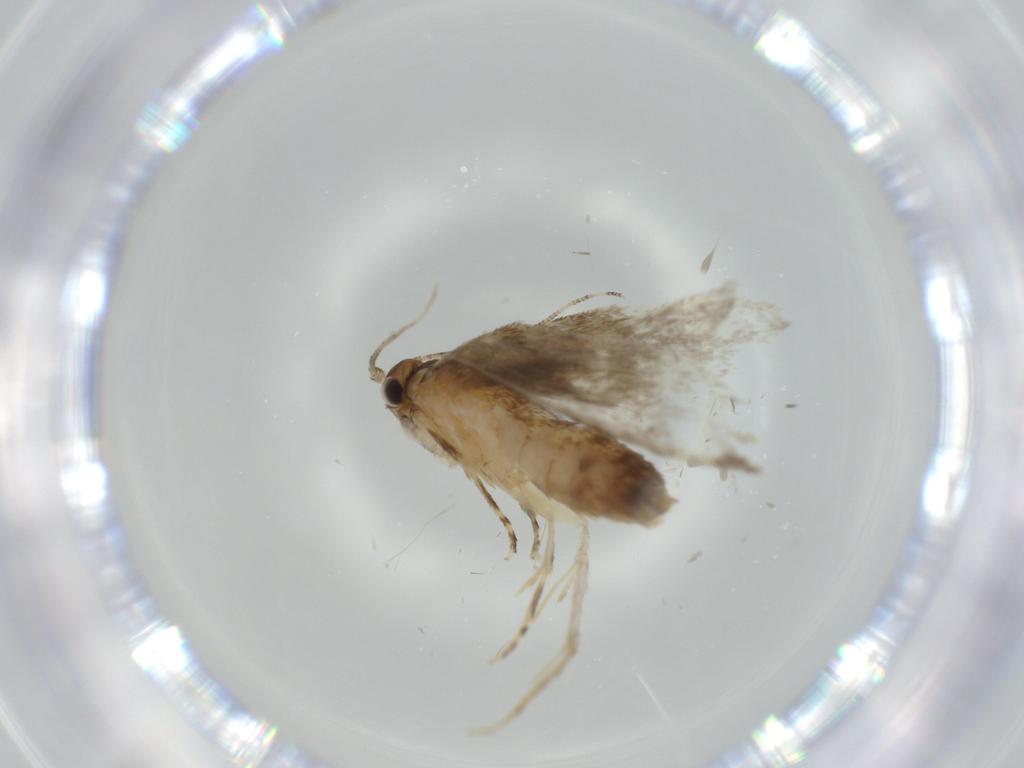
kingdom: Animalia
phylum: Arthropoda
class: Insecta
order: Lepidoptera
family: Tineidae
